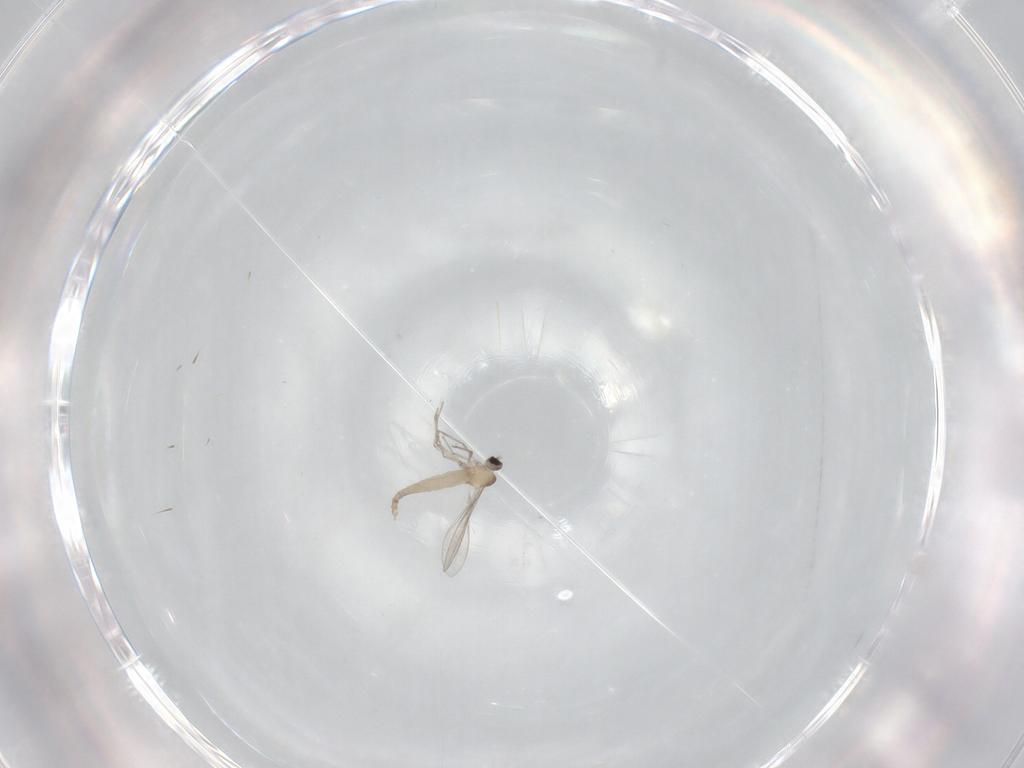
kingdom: Animalia
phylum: Arthropoda
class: Insecta
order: Diptera
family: Cecidomyiidae
